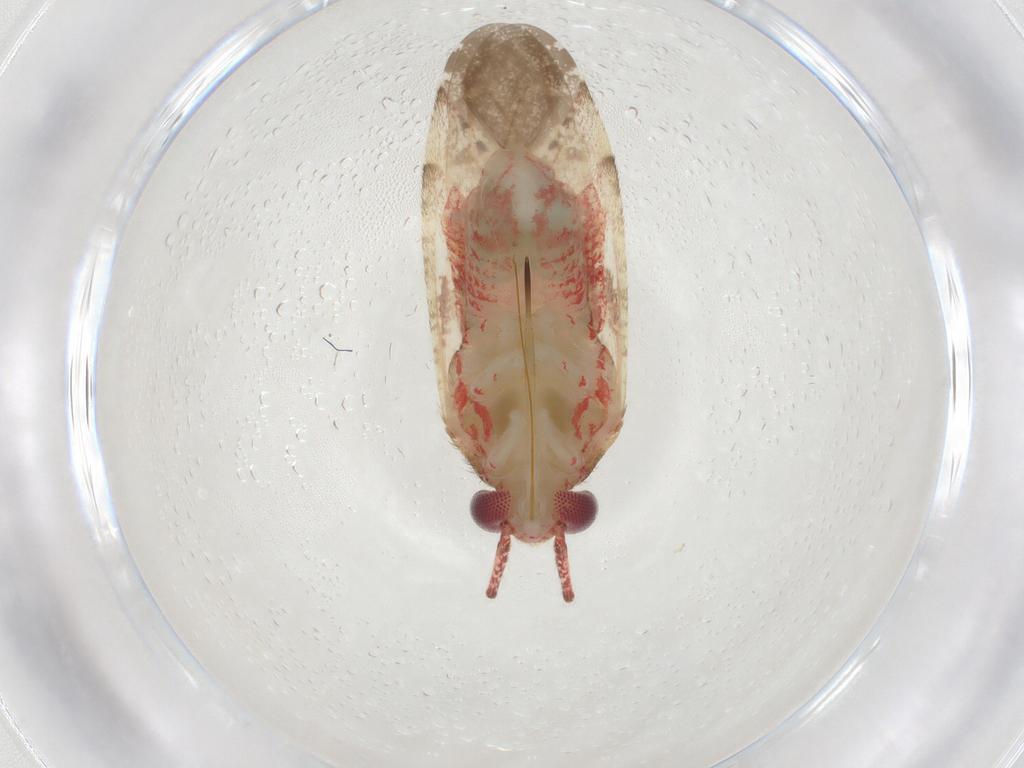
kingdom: Animalia
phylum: Arthropoda
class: Insecta
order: Hemiptera
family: Miridae
